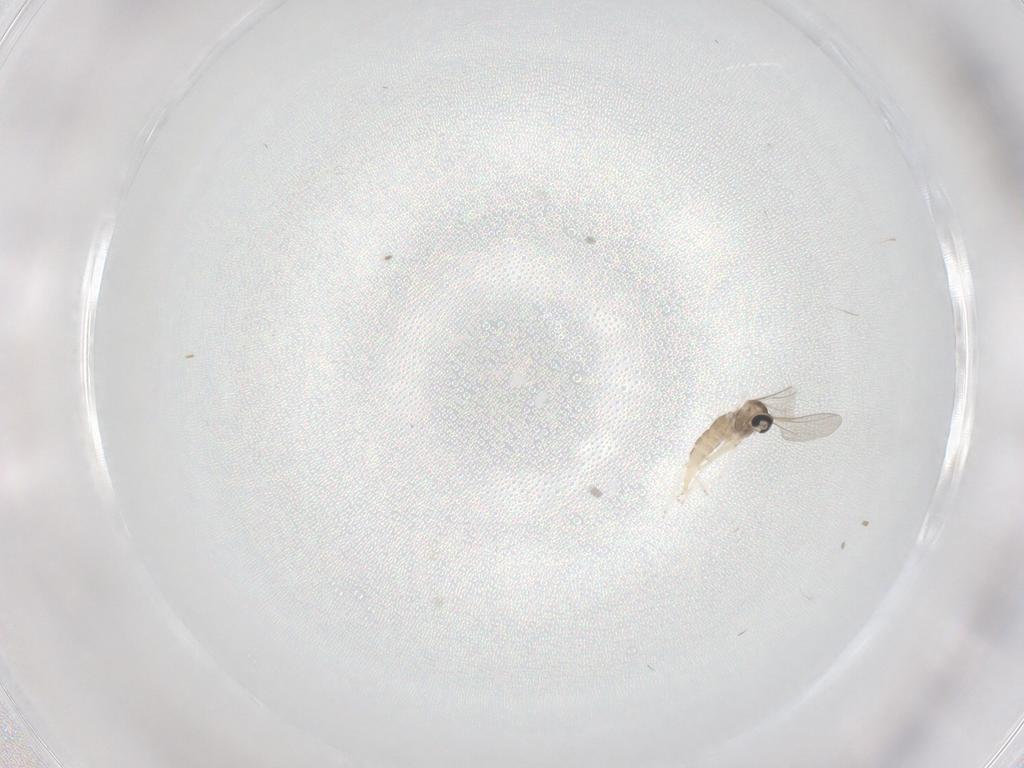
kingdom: Animalia
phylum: Arthropoda
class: Insecta
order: Diptera
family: Cecidomyiidae
